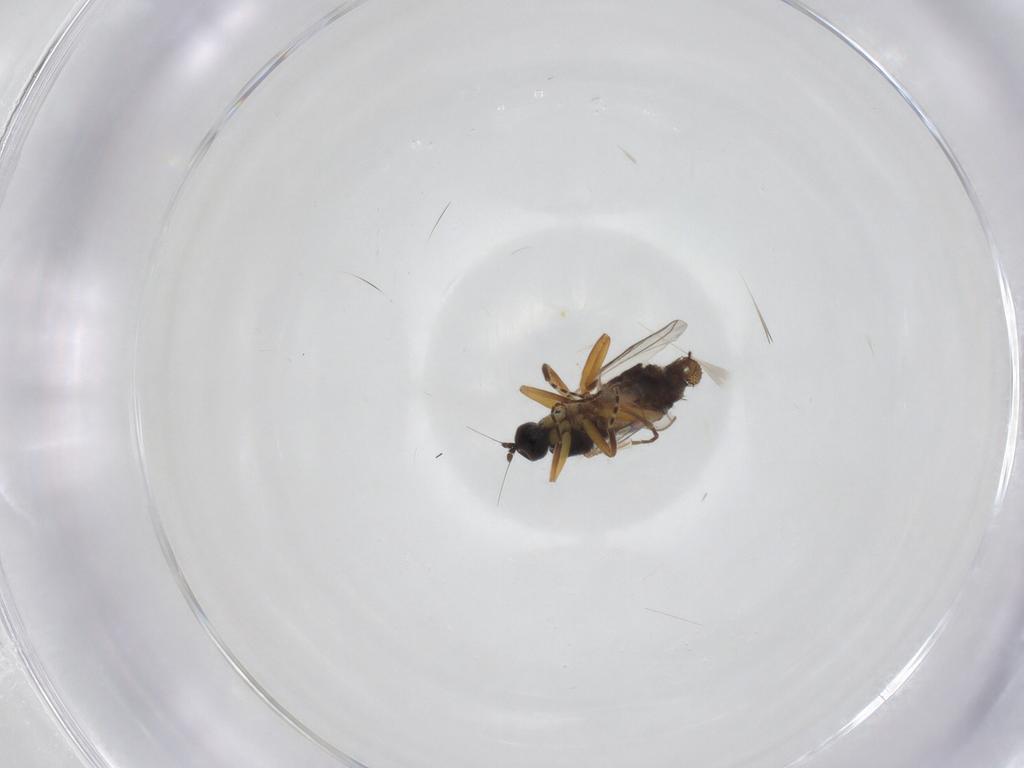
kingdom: Animalia
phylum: Arthropoda
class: Insecta
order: Diptera
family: Hybotidae
